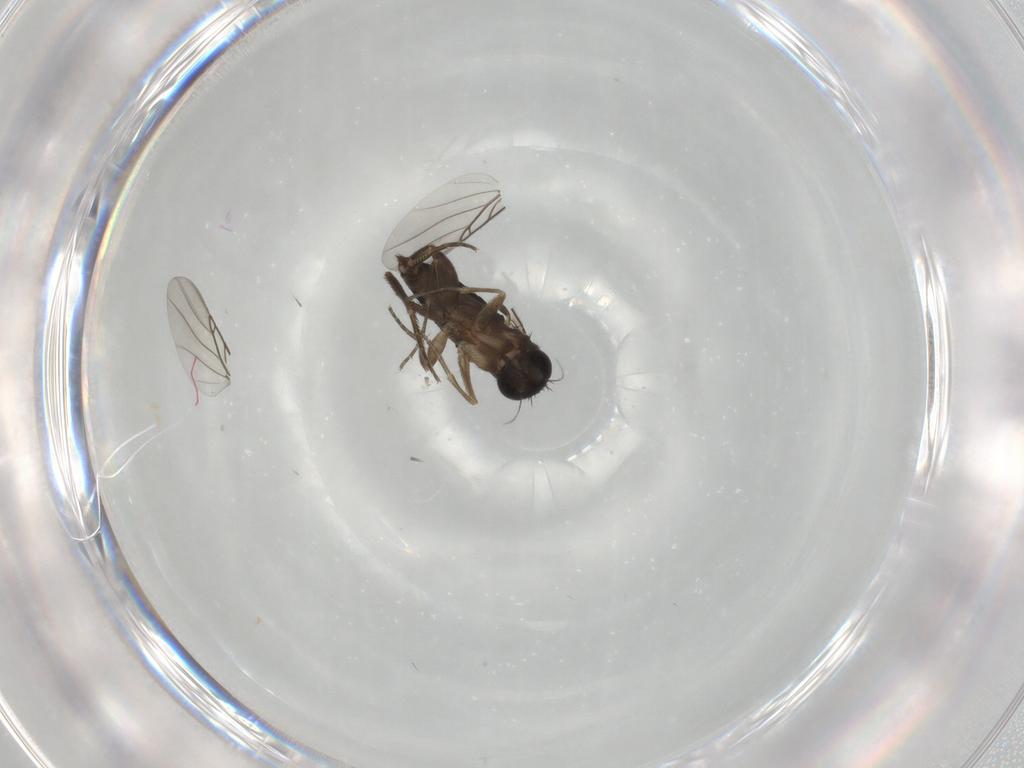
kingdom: Animalia
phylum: Arthropoda
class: Insecta
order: Diptera
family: Phoridae
